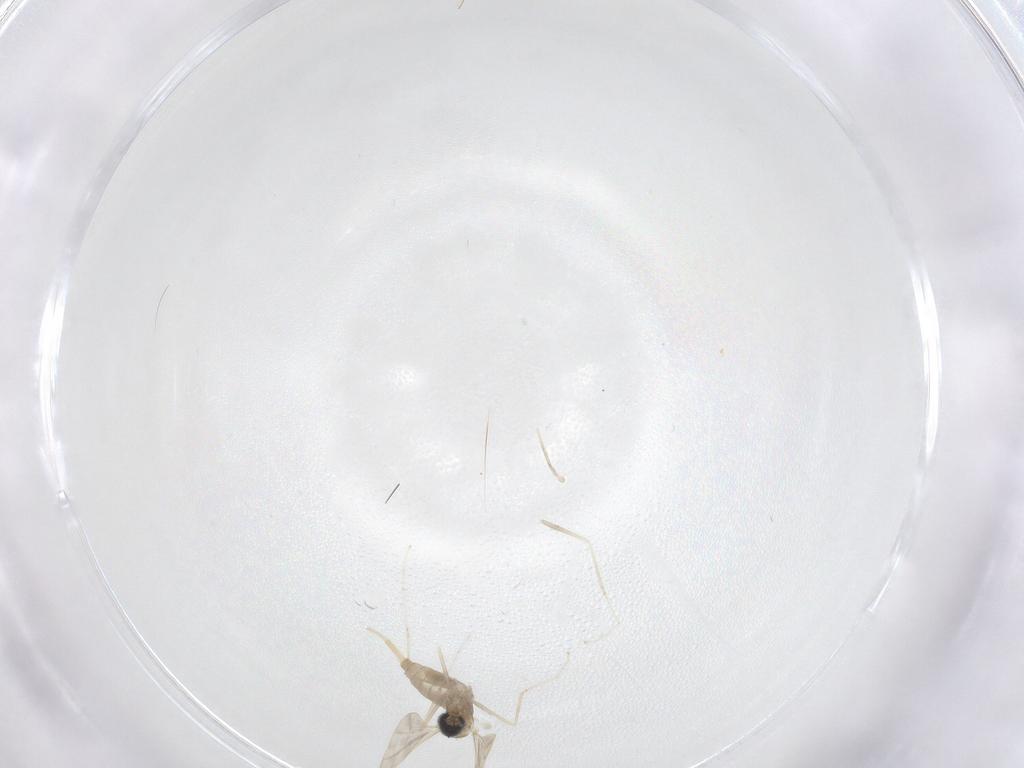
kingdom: Animalia
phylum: Arthropoda
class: Insecta
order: Diptera
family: Cecidomyiidae
